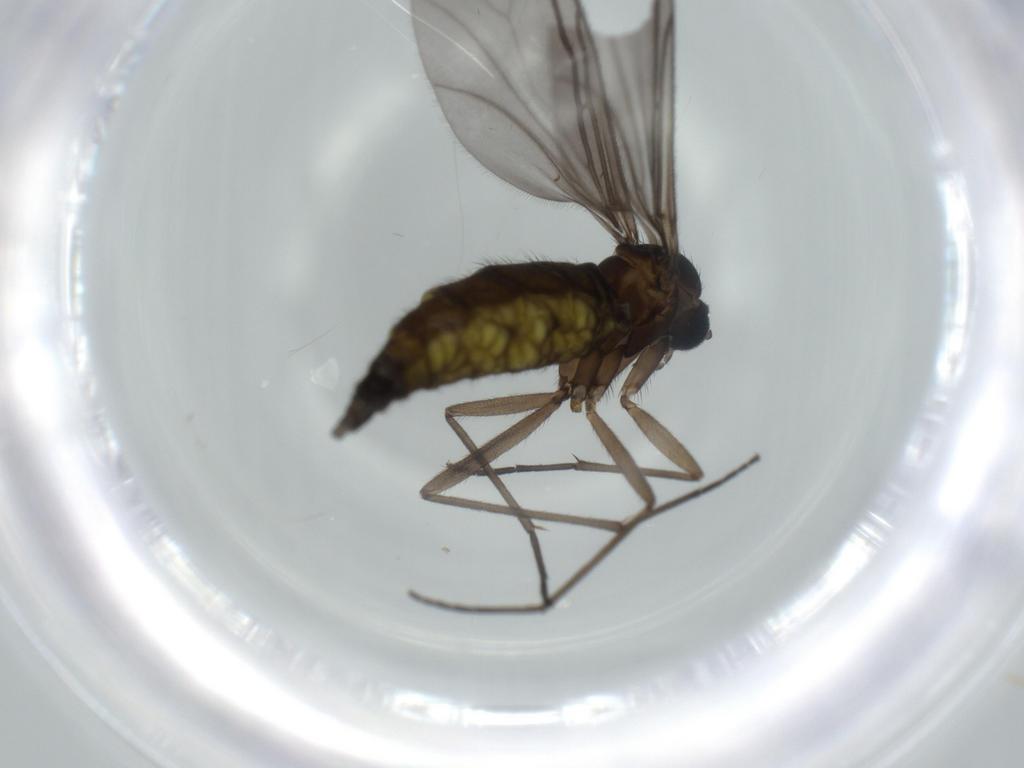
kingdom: Animalia
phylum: Arthropoda
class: Insecta
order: Diptera
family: Sciaridae
